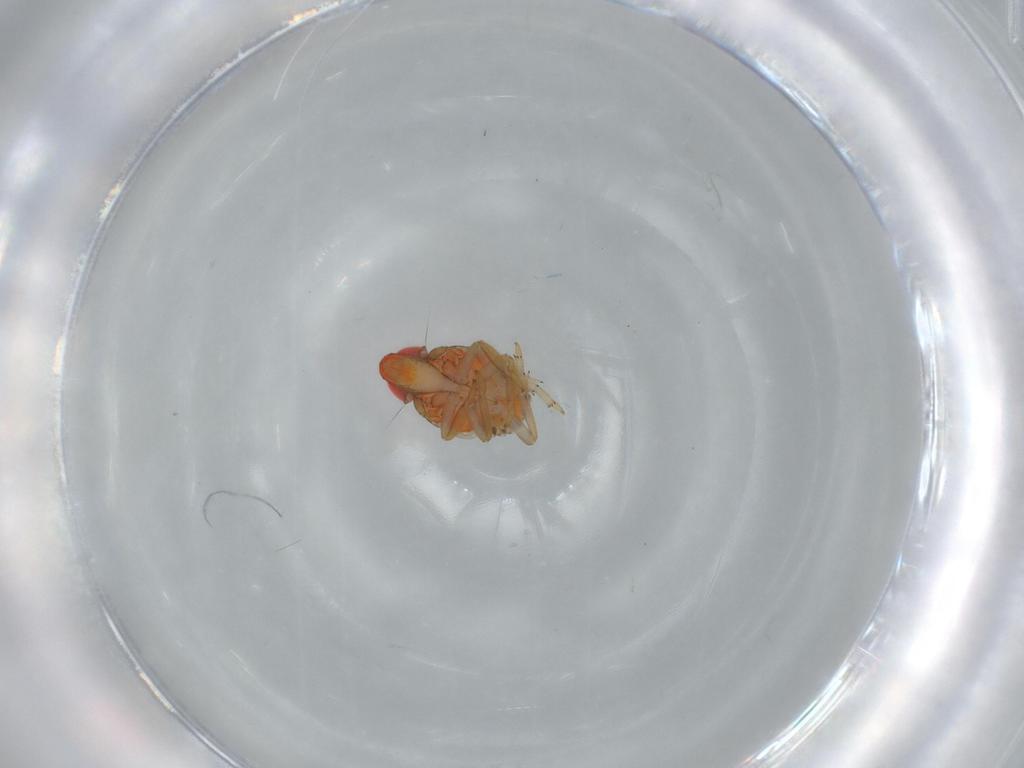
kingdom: Animalia
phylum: Arthropoda
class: Insecta
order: Hemiptera
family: Fulgoroidea_incertae_sedis
